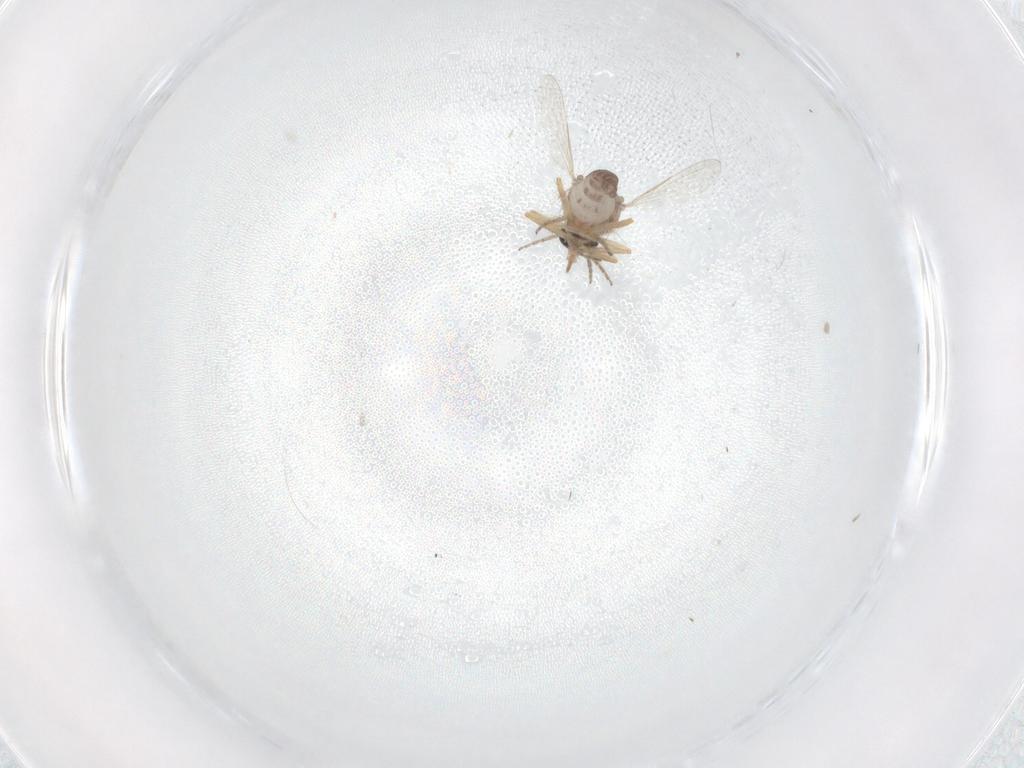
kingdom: Animalia
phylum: Arthropoda
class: Insecta
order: Diptera
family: Ceratopogonidae
